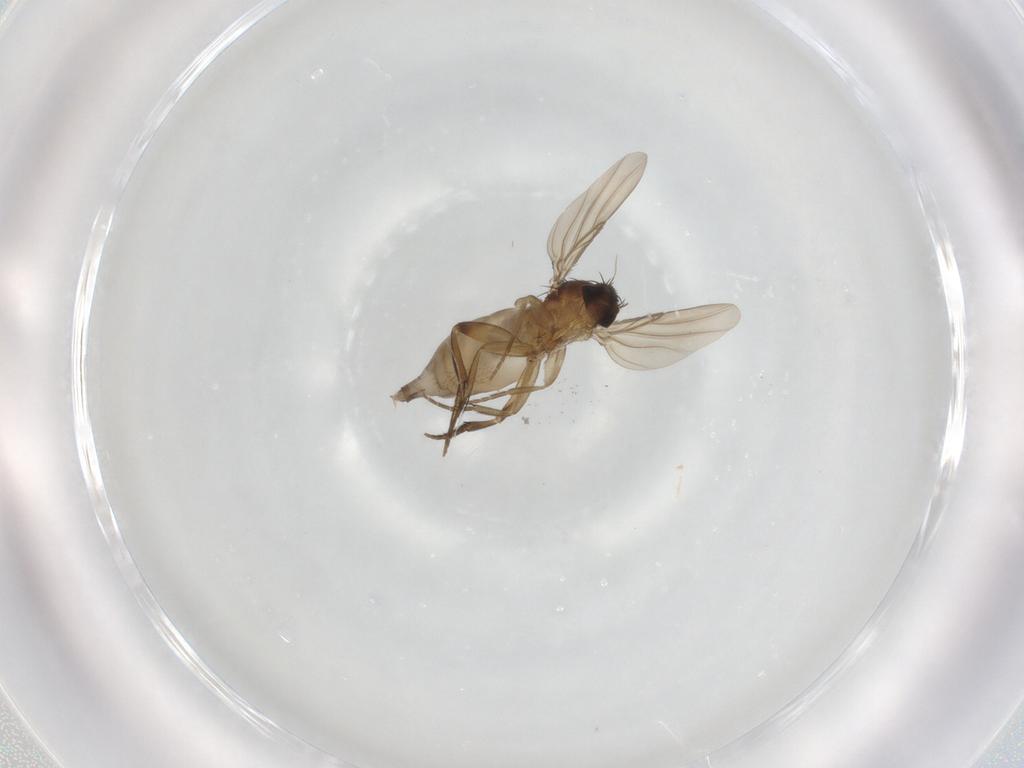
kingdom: Animalia
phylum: Arthropoda
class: Insecta
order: Diptera
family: Phoridae
